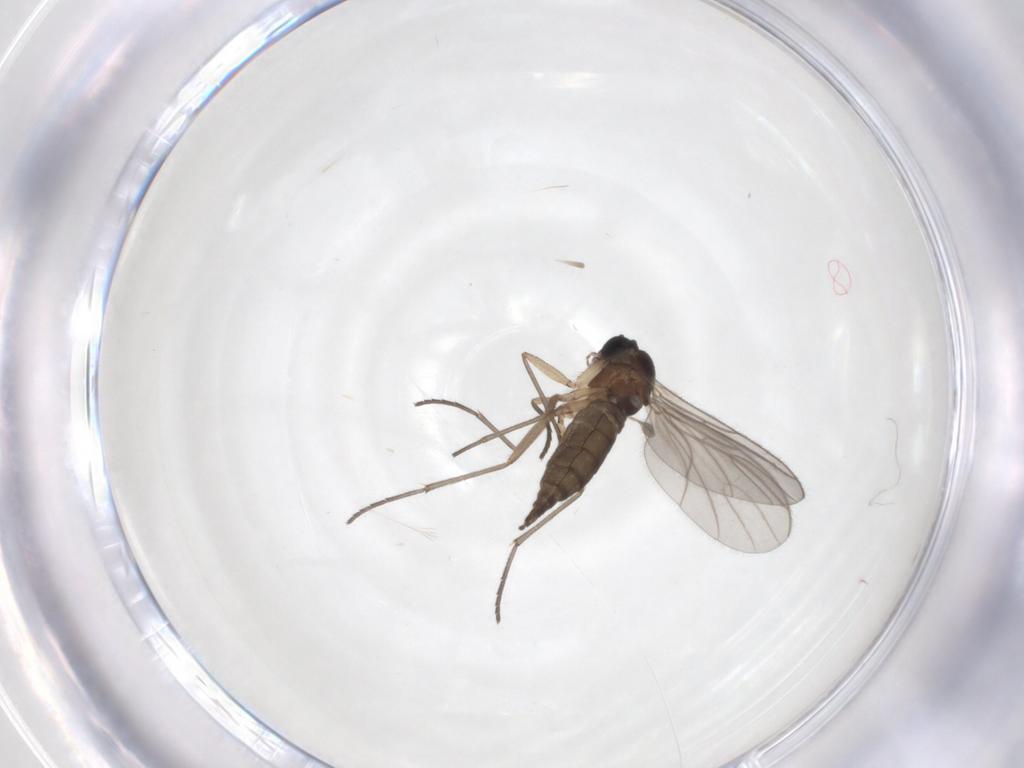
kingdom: Animalia
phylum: Arthropoda
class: Insecta
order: Diptera
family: Sciaridae
